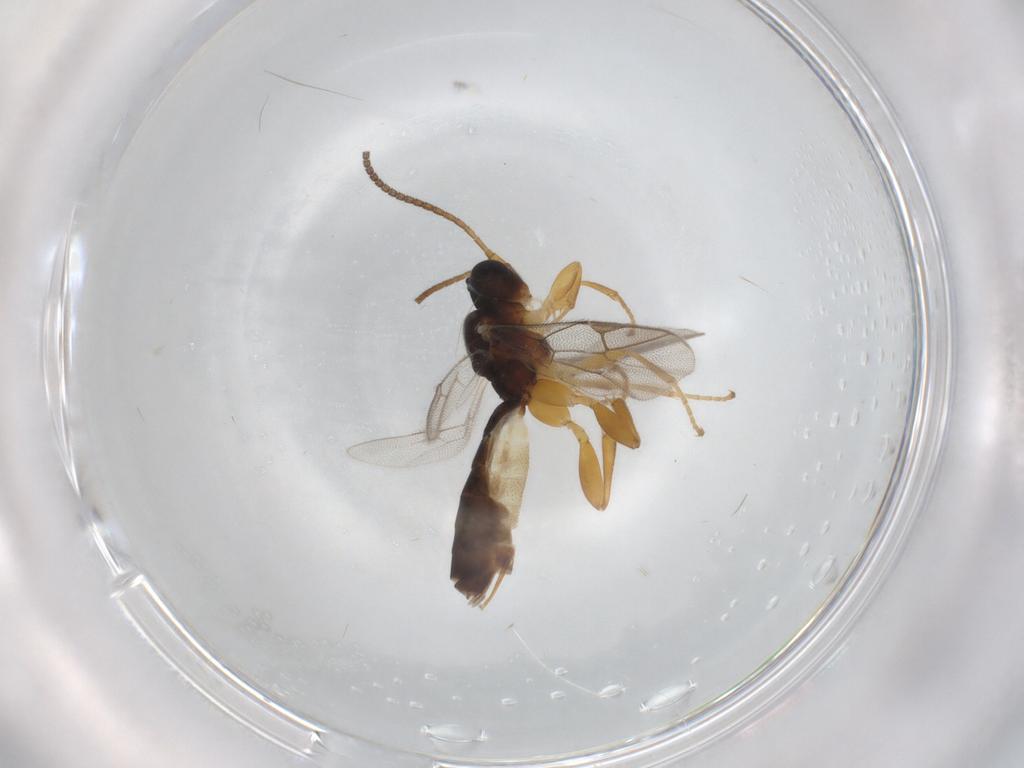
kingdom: Animalia
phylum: Arthropoda
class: Insecta
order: Hymenoptera
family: Ichneumonidae
